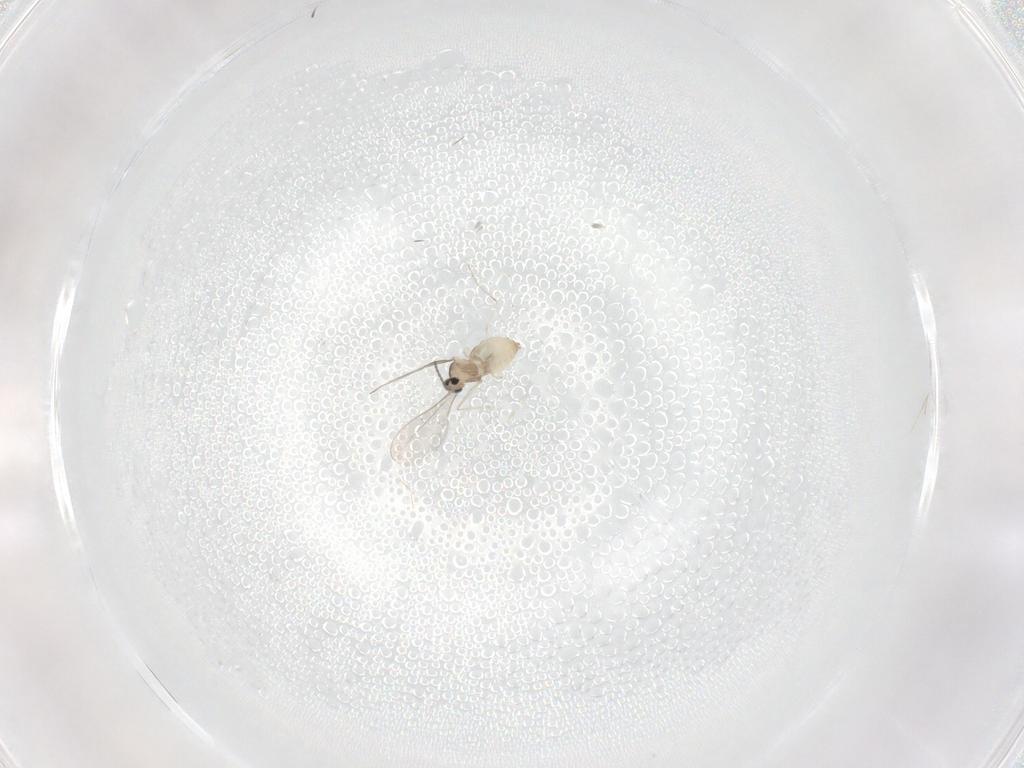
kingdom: Animalia
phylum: Arthropoda
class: Insecta
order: Diptera
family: Cecidomyiidae
